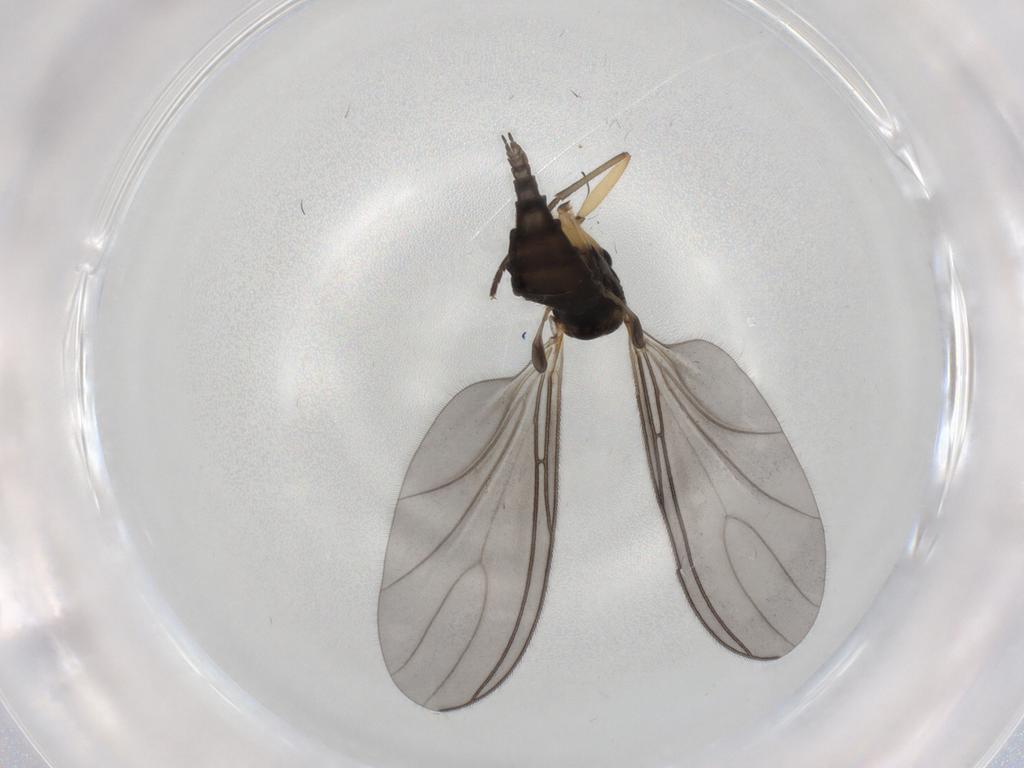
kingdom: Animalia
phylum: Arthropoda
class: Insecta
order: Diptera
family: Sciaridae
